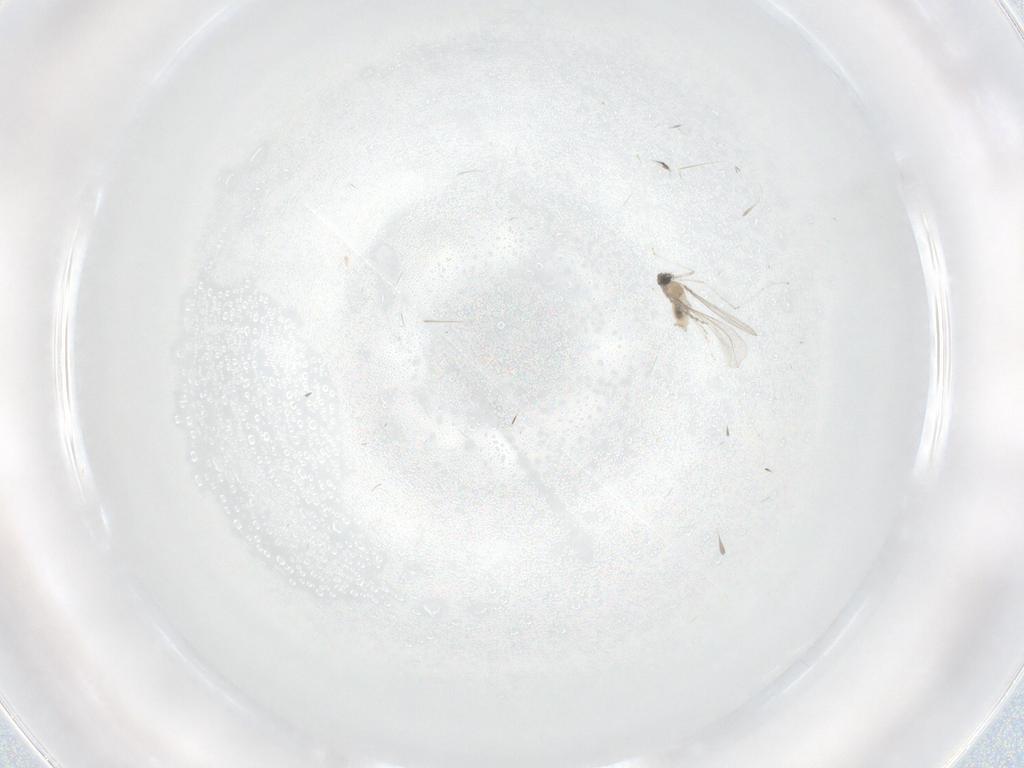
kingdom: Animalia
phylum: Arthropoda
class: Insecta
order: Diptera
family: Cecidomyiidae
